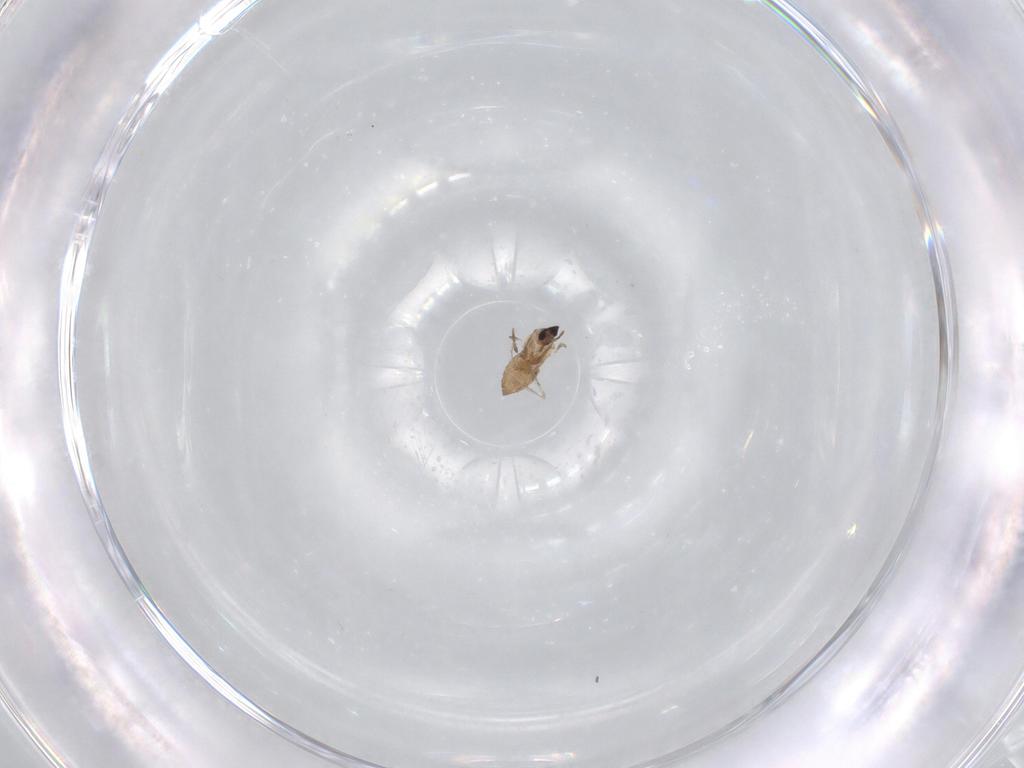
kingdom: Animalia
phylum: Arthropoda
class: Insecta
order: Diptera
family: Cecidomyiidae
